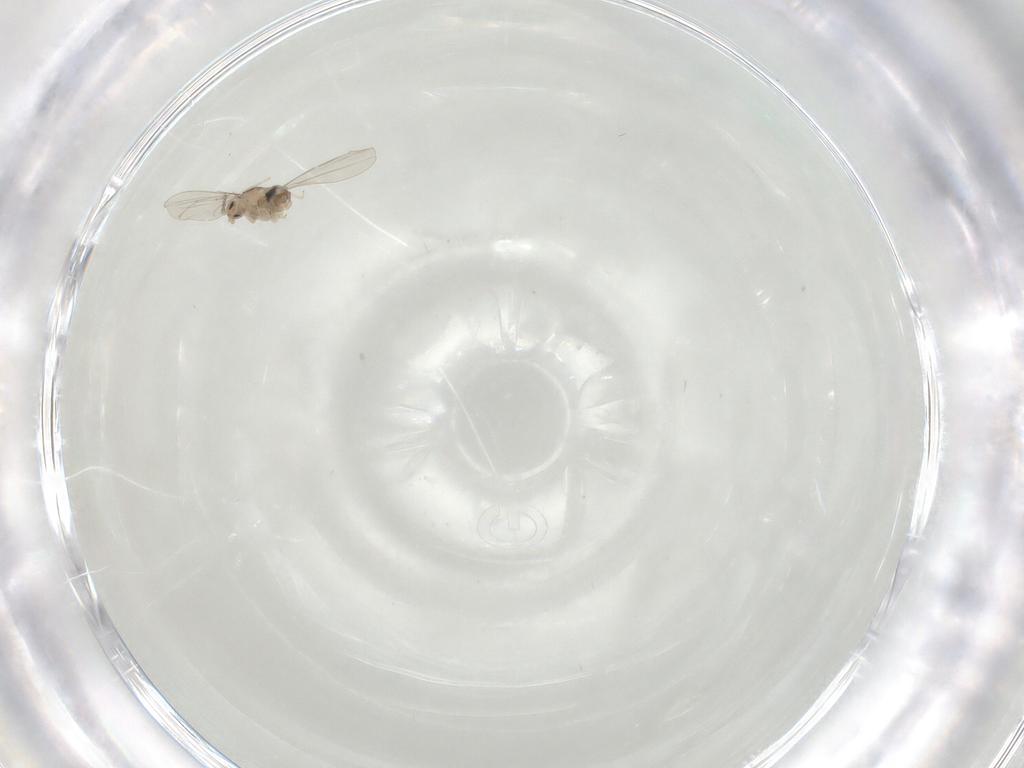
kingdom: Animalia
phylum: Arthropoda
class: Insecta
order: Diptera
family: Cecidomyiidae
